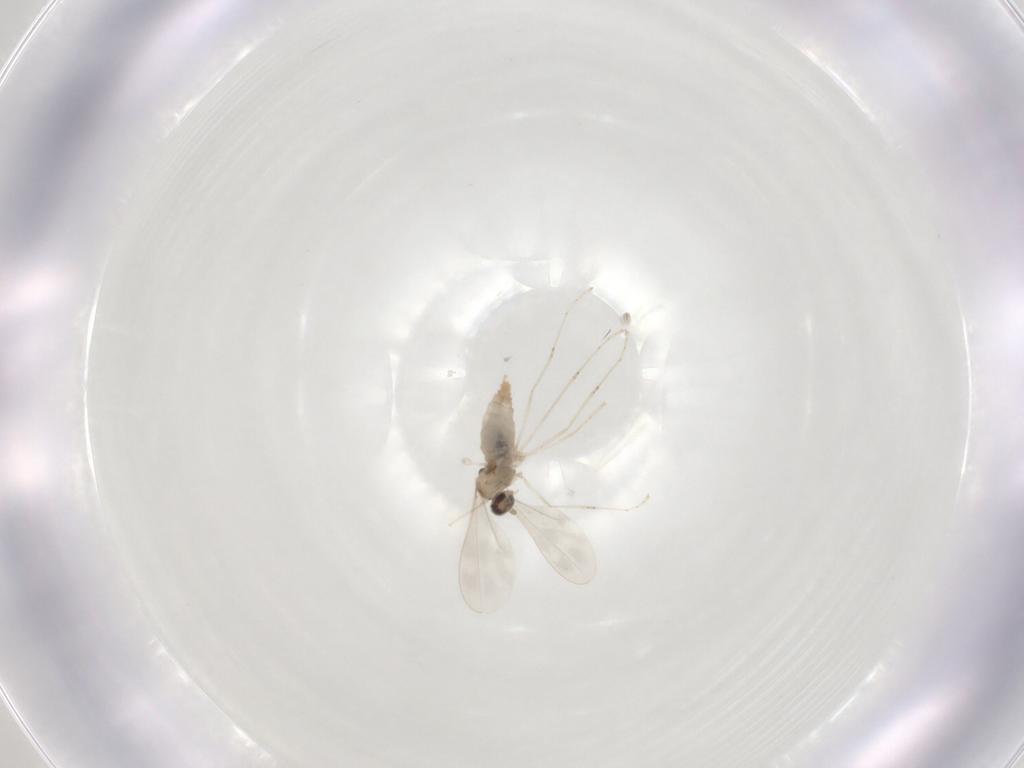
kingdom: Animalia
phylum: Arthropoda
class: Insecta
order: Diptera
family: Cecidomyiidae
